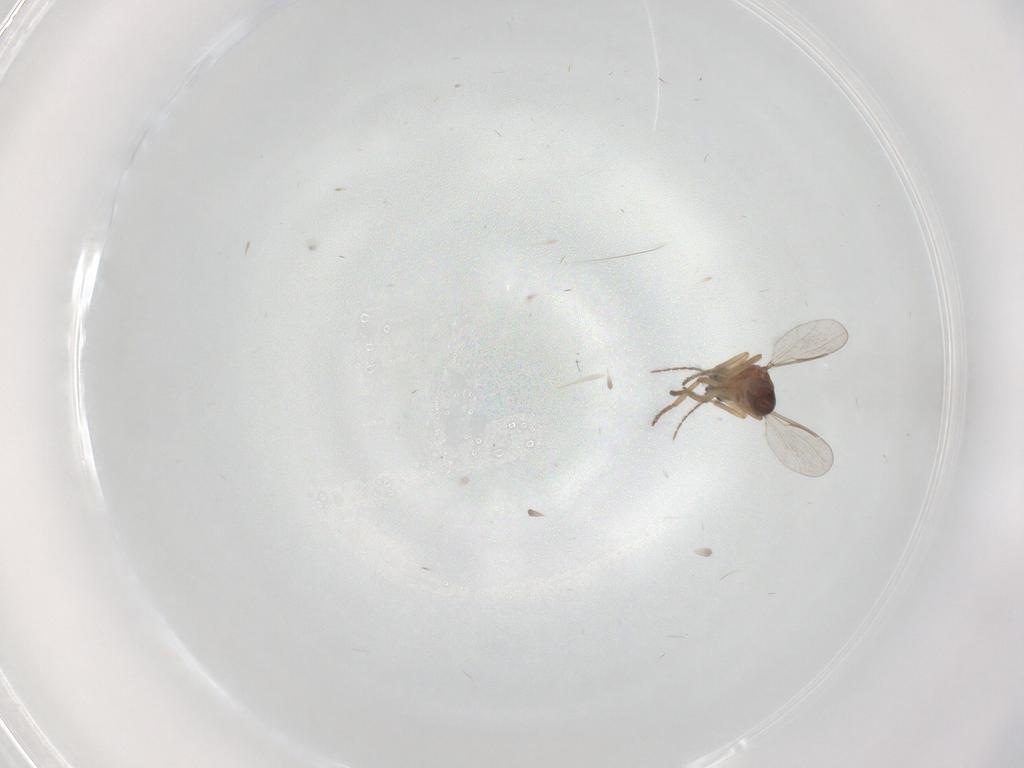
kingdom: Animalia
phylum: Arthropoda
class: Insecta
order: Diptera
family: Ceratopogonidae
